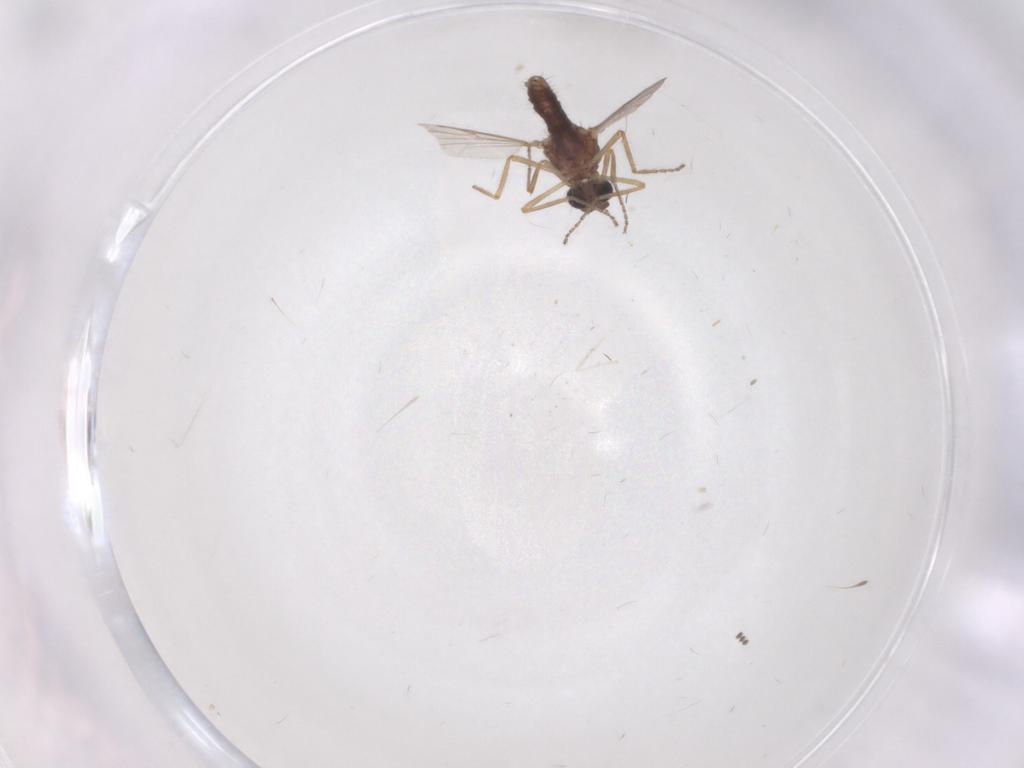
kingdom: Animalia
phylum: Arthropoda
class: Insecta
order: Diptera
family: Ceratopogonidae
